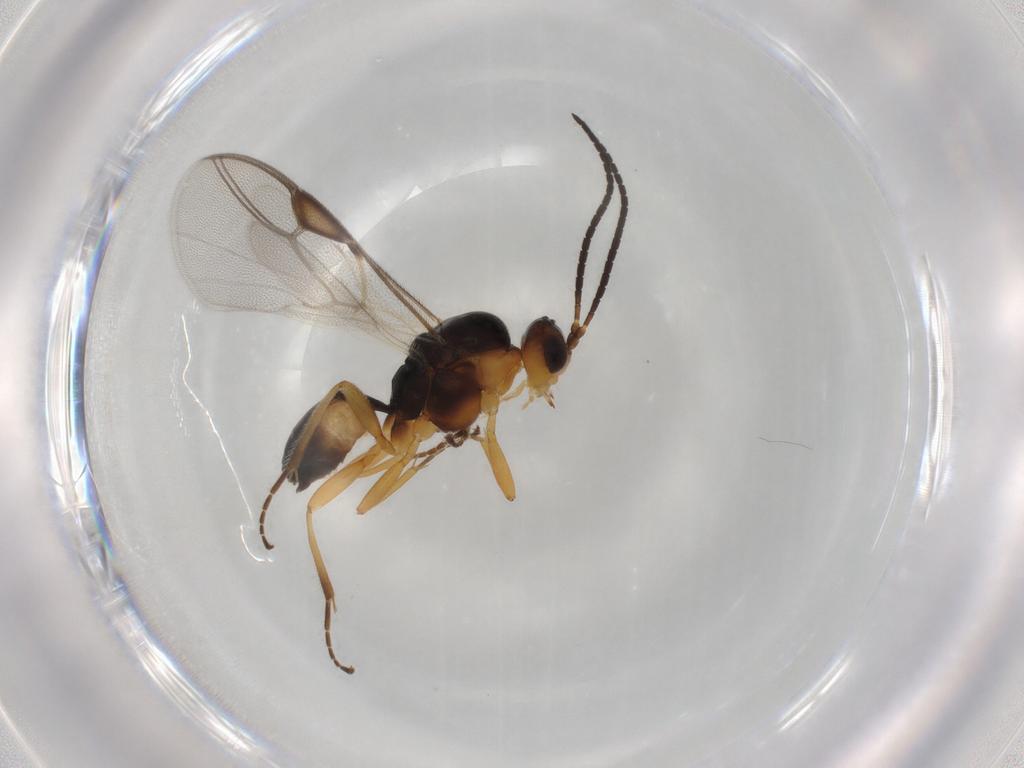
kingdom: Animalia
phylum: Arthropoda
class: Insecta
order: Hymenoptera
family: Braconidae
